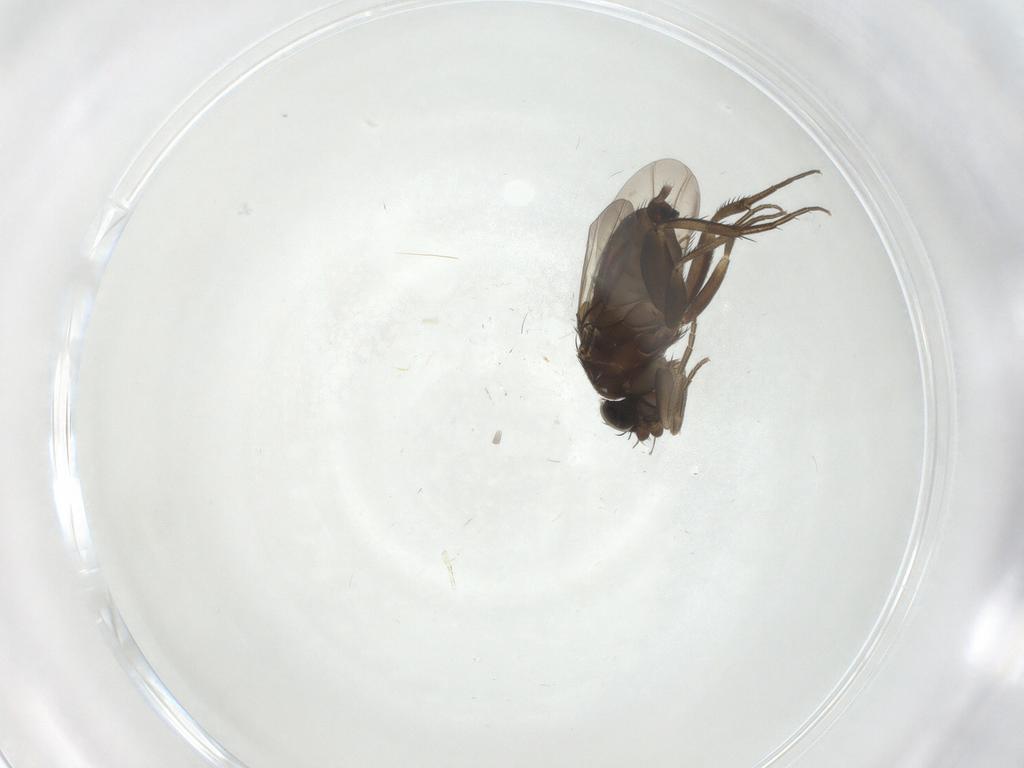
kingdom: Animalia
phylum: Arthropoda
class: Insecta
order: Diptera
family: Phoridae
